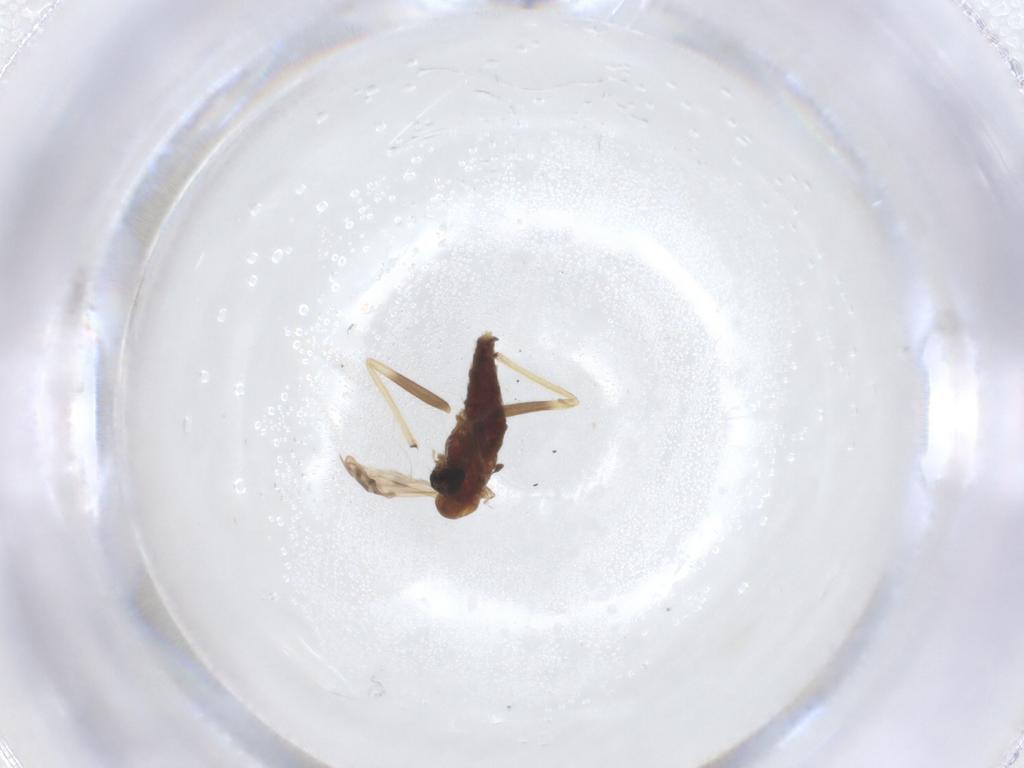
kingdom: Animalia
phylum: Arthropoda
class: Insecta
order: Diptera
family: Chironomidae
